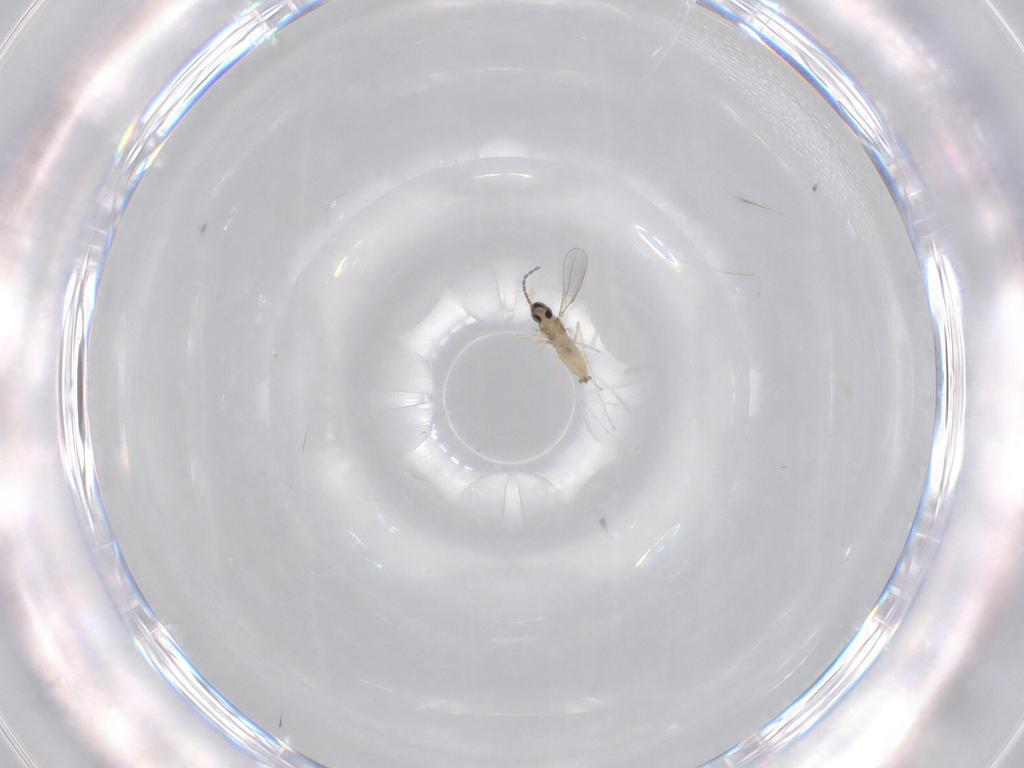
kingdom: Animalia
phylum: Arthropoda
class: Insecta
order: Diptera
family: Cecidomyiidae
